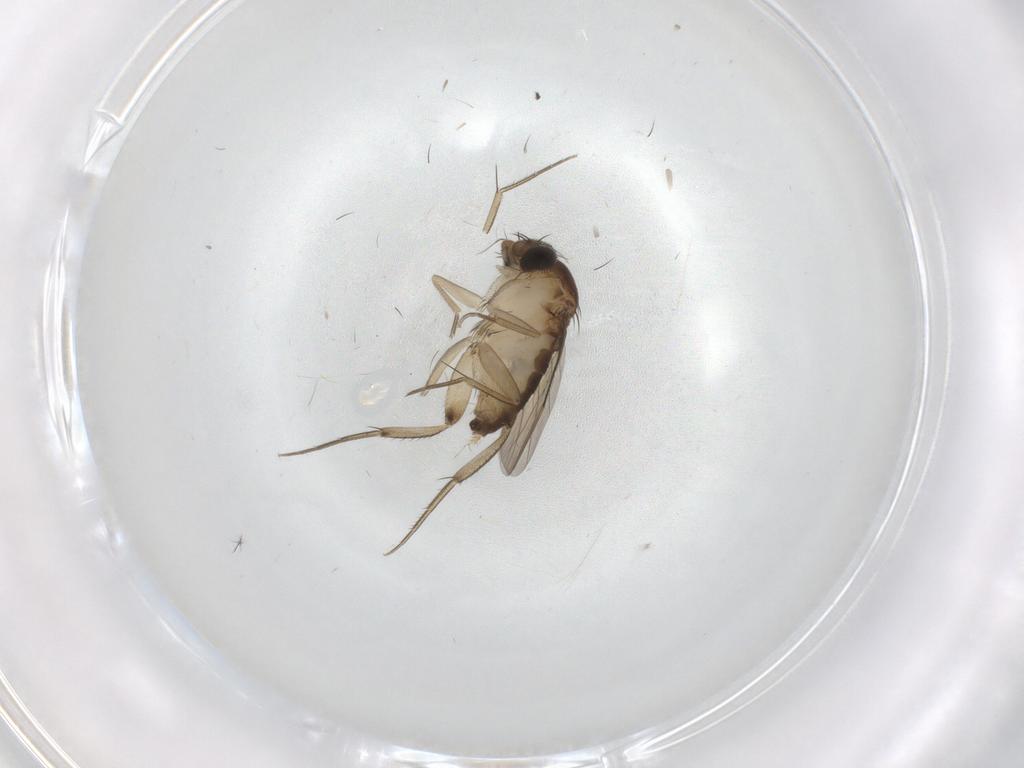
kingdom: Animalia
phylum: Arthropoda
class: Insecta
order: Diptera
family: Phoridae
